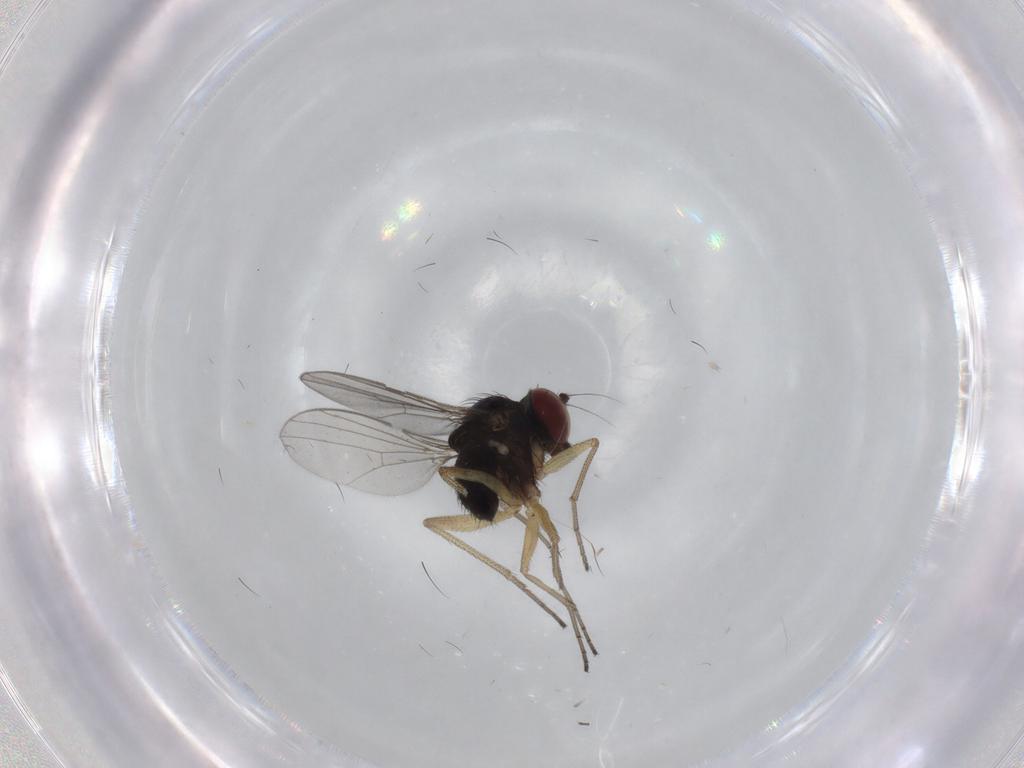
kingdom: Animalia
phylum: Arthropoda
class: Insecta
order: Diptera
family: Dolichopodidae
